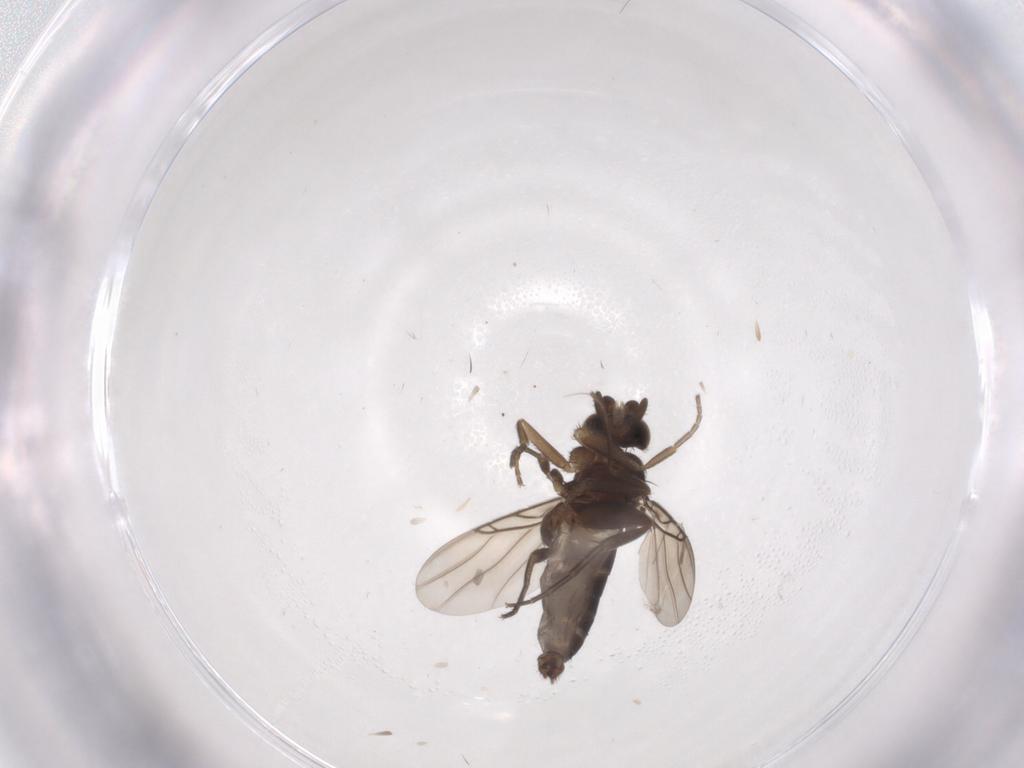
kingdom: Animalia
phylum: Arthropoda
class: Insecta
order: Diptera
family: Phoridae
